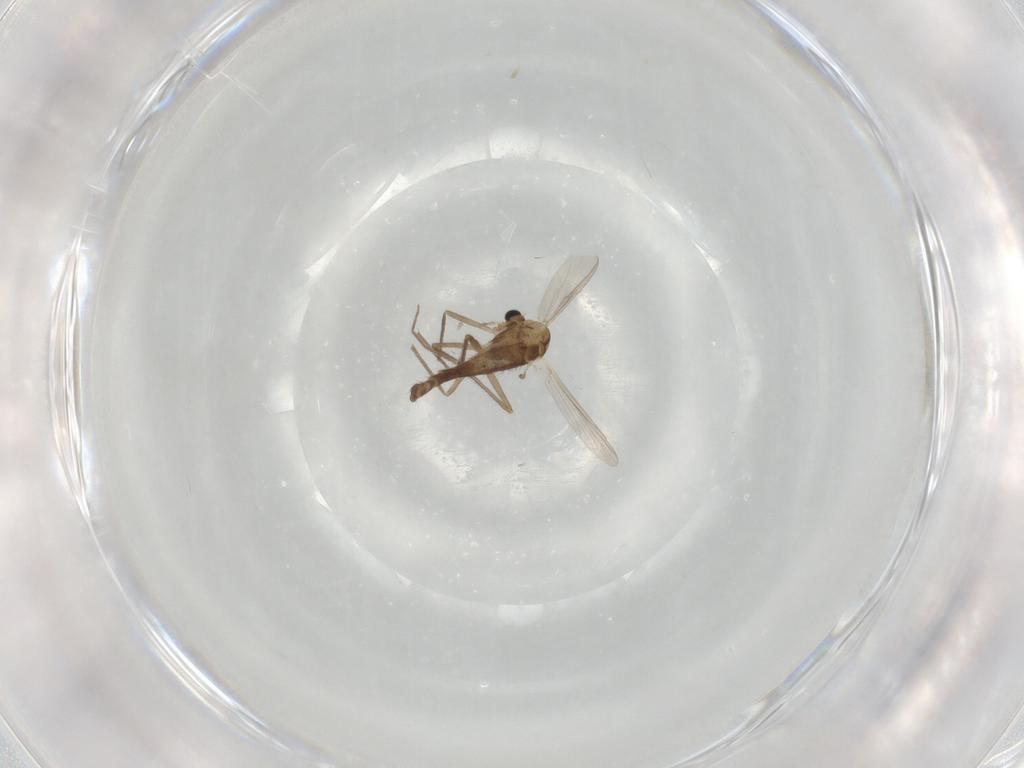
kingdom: Animalia
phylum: Arthropoda
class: Insecta
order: Diptera
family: Chironomidae
